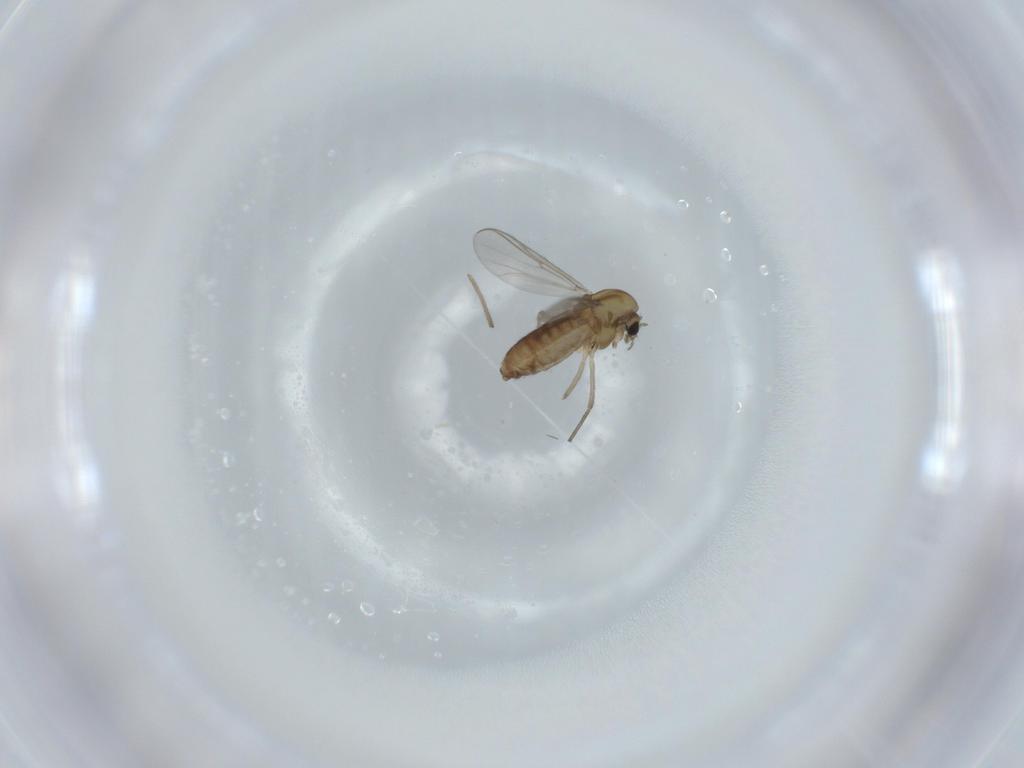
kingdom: Animalia
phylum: Arthropoda
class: Insecta
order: Diptera
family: Chironomidae
